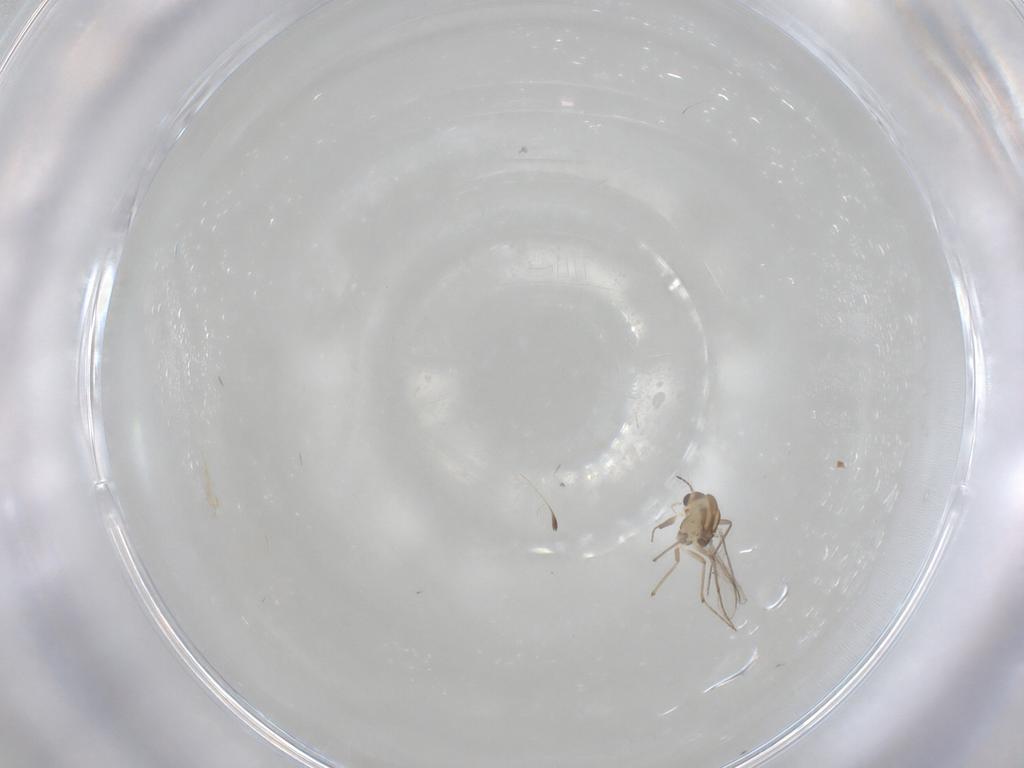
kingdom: Animalia
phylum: Arthropoda
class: Insecta
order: Diptera
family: Chironomidae
